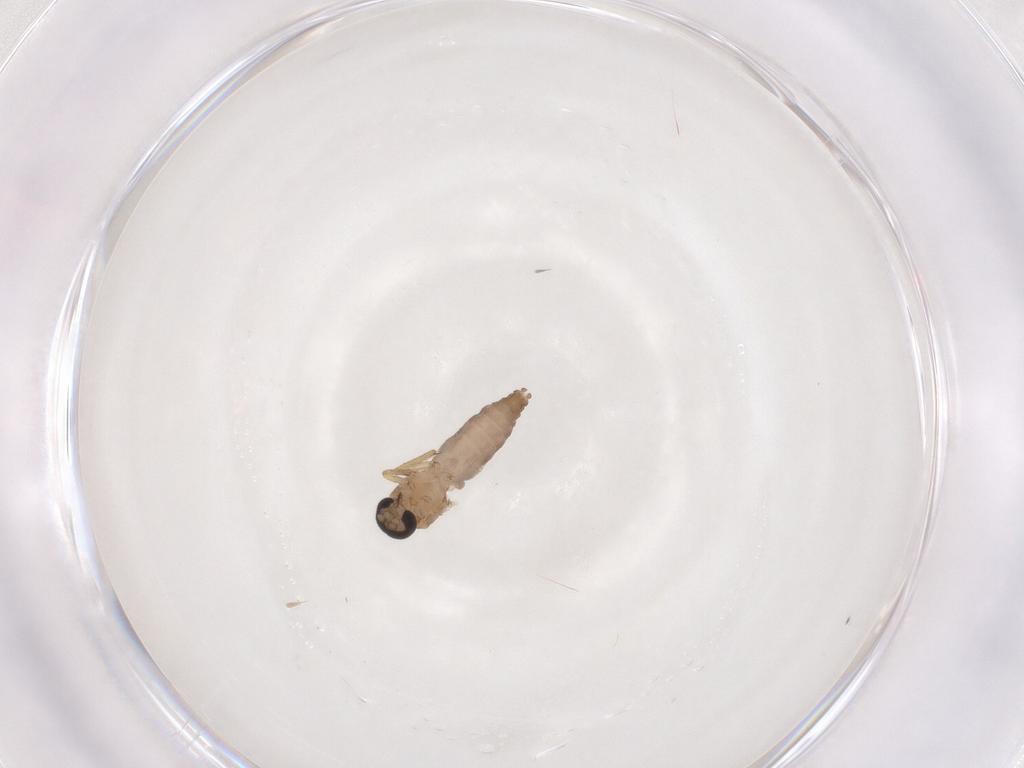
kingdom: Animalia
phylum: Arthropoda
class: Insecta
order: Diptera
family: Ceratopogonidae
